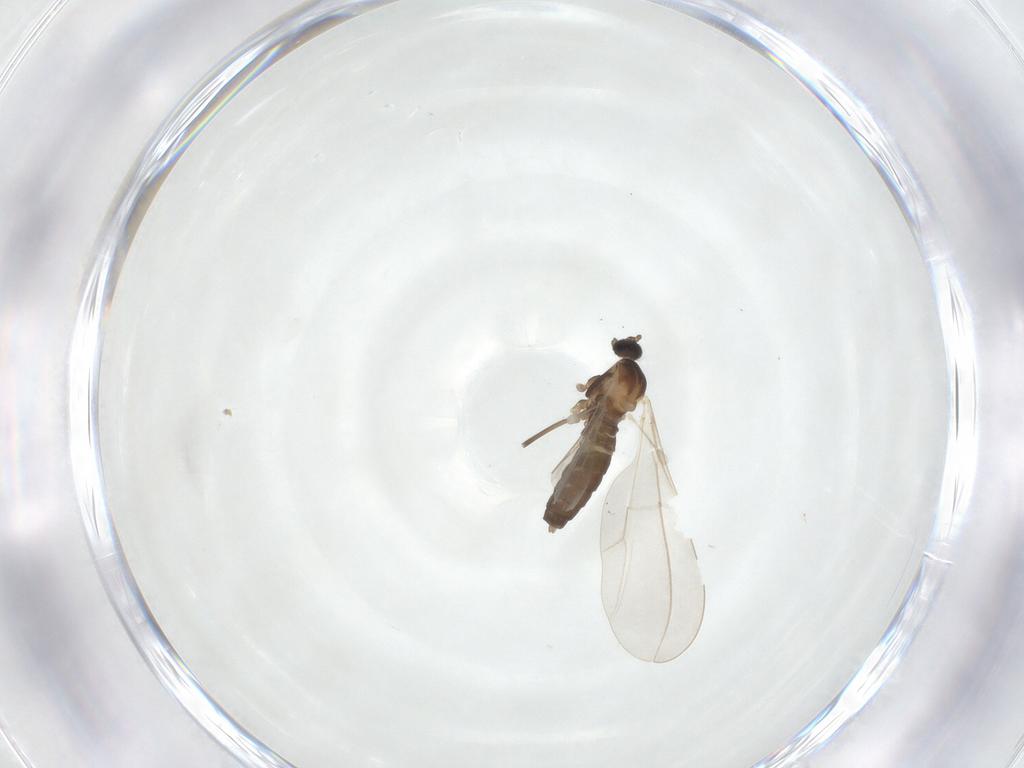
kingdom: Animalia
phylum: Arthropoda
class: Insecta
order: Diptera
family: Cecidomyiidae
